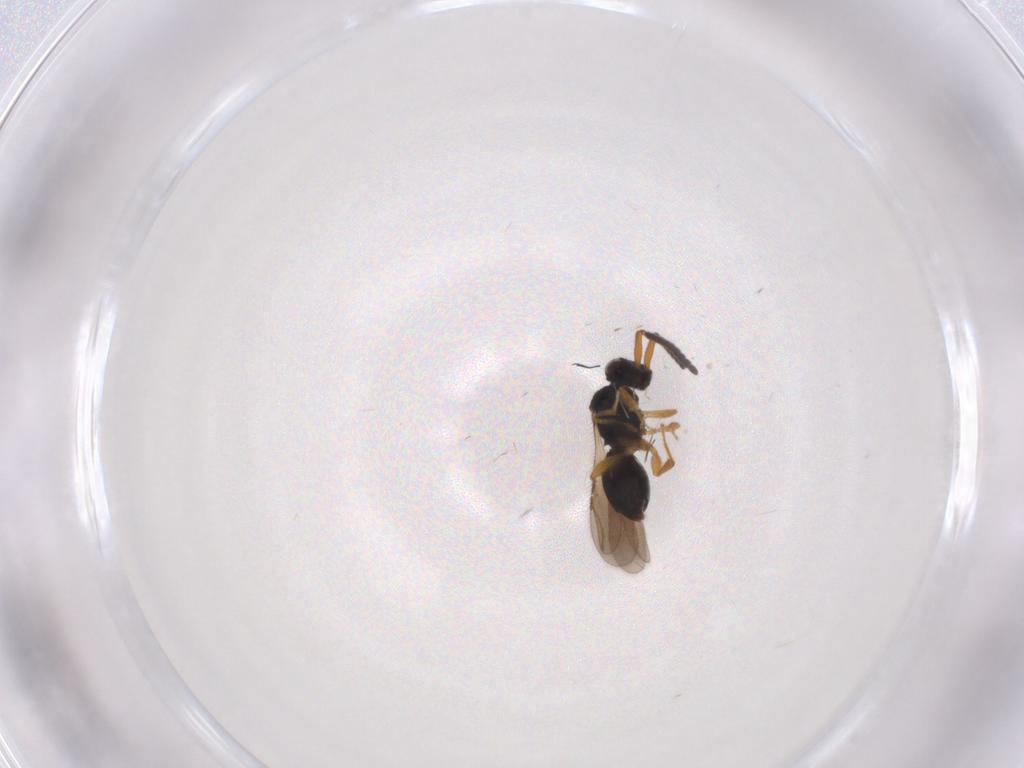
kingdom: Animalia
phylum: Arthropoda
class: Insecta
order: Hymenoptera
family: Ceraphronidae
